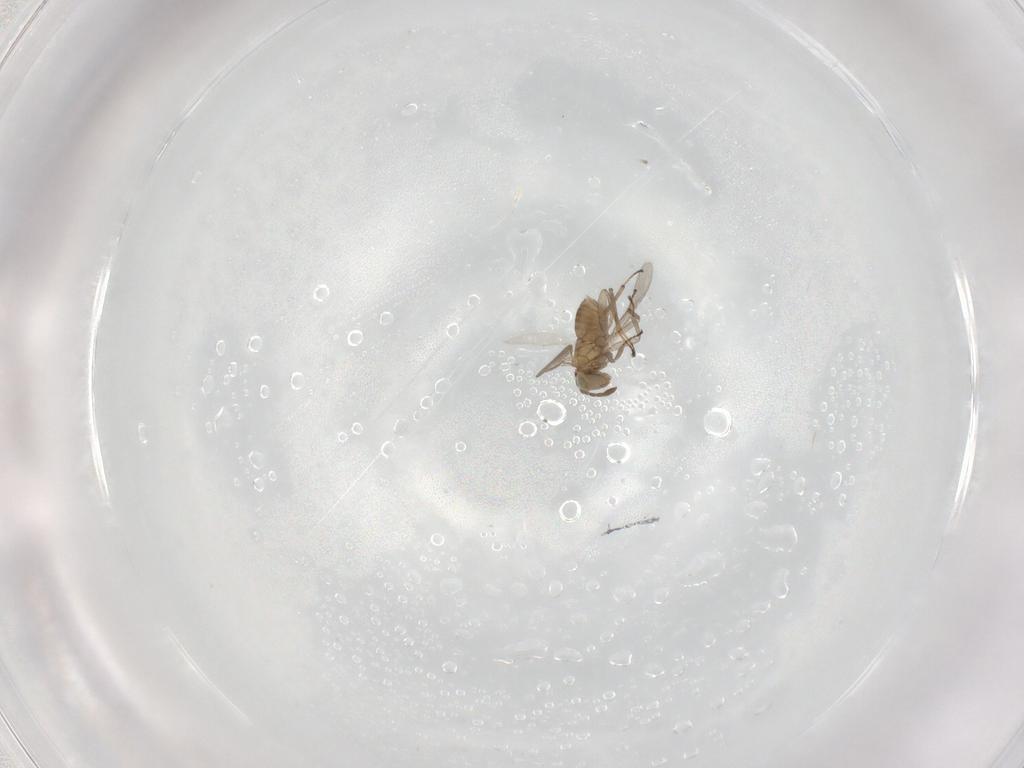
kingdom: Animalia
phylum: Arthropoda
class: Insecta
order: Hymenoptera
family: Aphelinidae
